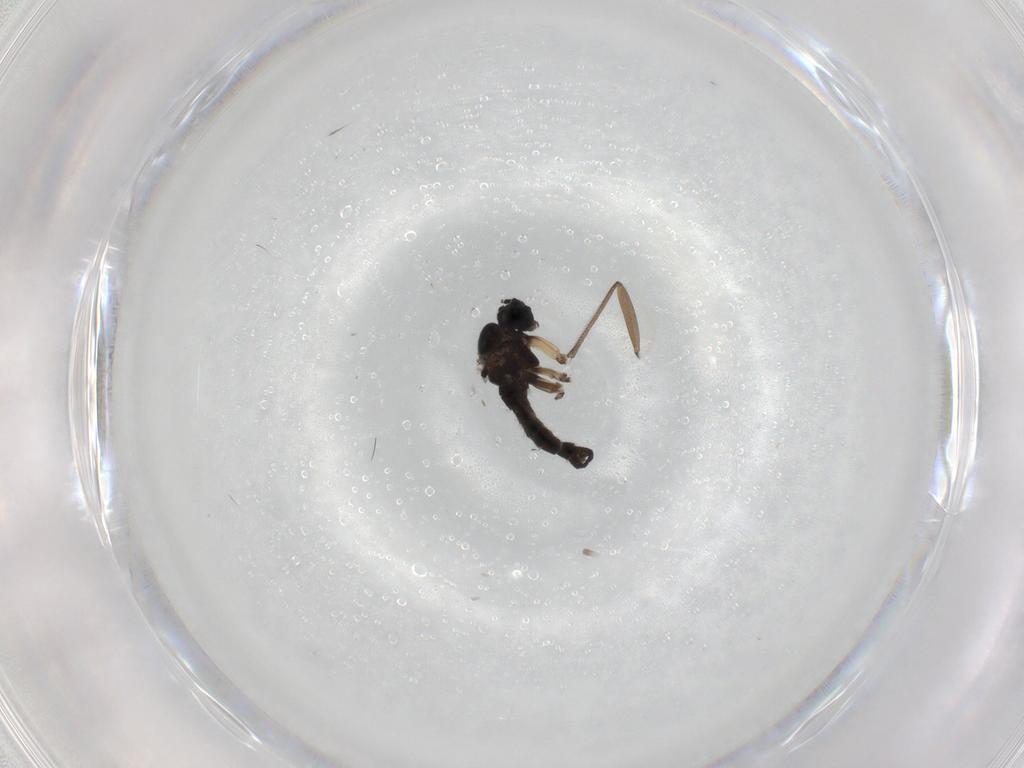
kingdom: Animalia
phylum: Arthropoda
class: Insecta
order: Diptera
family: Sciaridae
